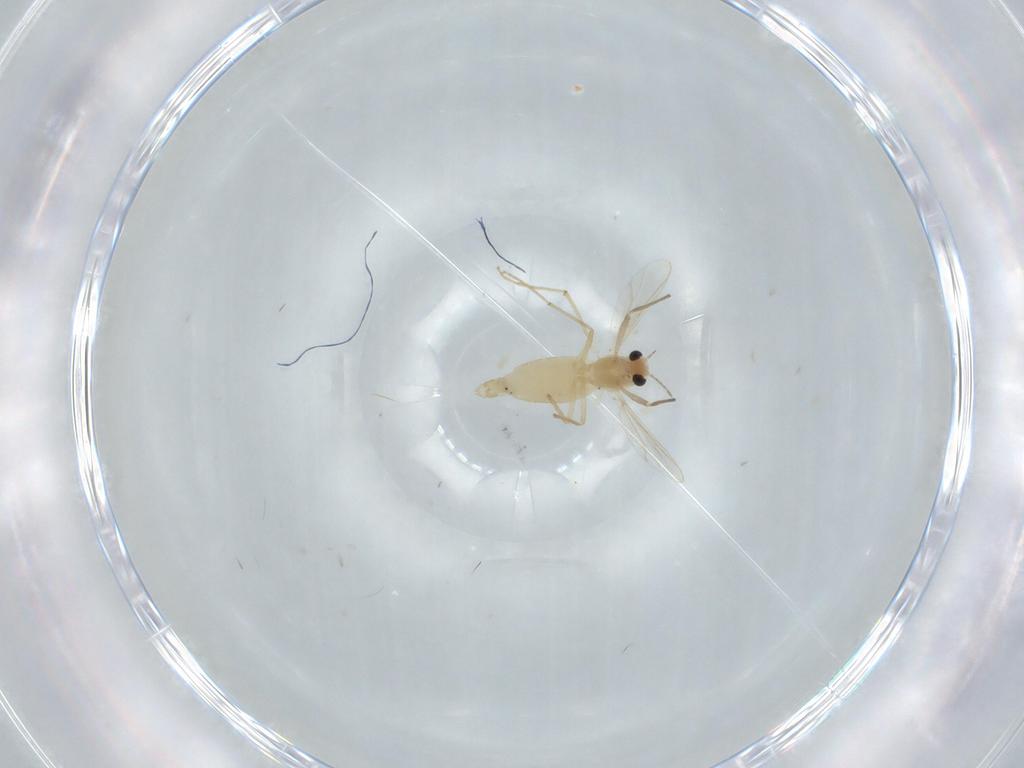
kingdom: Animalia
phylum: Arthropoda
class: Insecta
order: Diptera
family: Chironomidae
